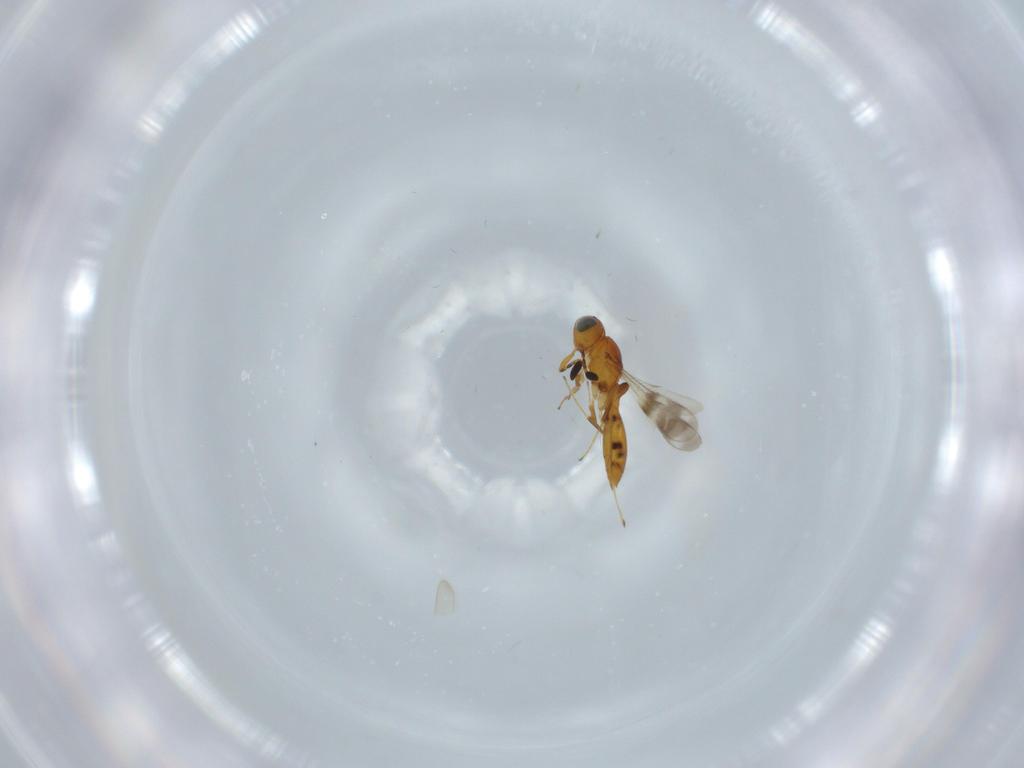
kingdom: Animalia
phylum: Arthropoda
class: Insecta
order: Hymenoptera
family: Scelionidae
